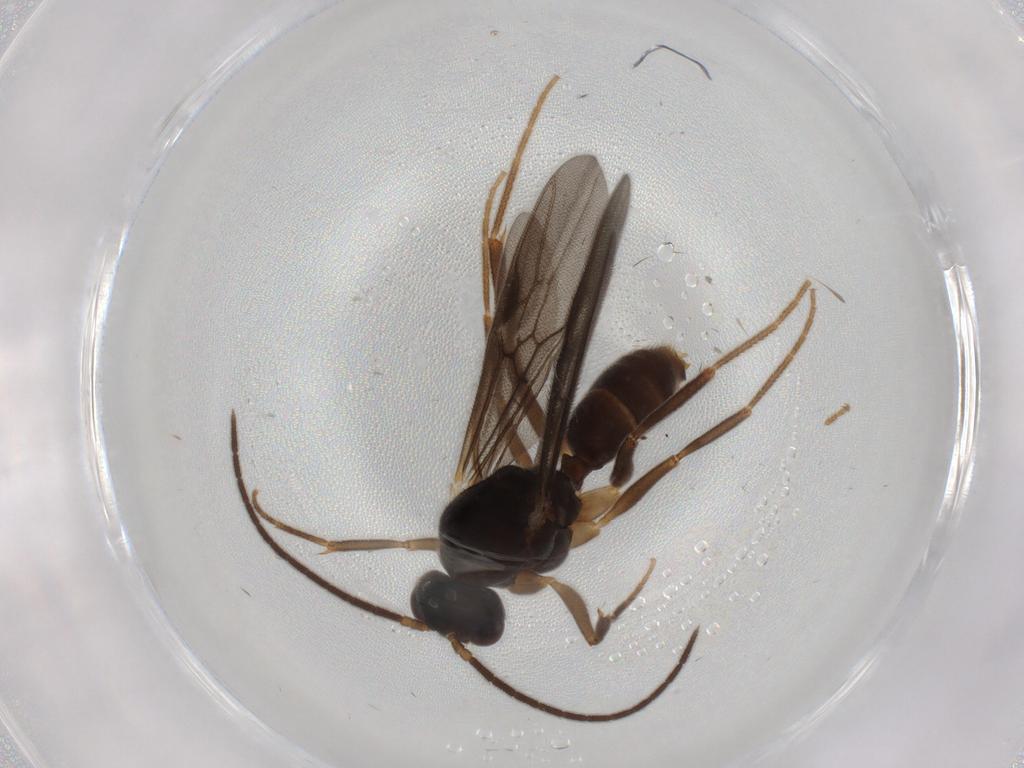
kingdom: Animalia
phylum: Arthropoda
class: Insecta
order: Hymenoptera
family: Formicidae
